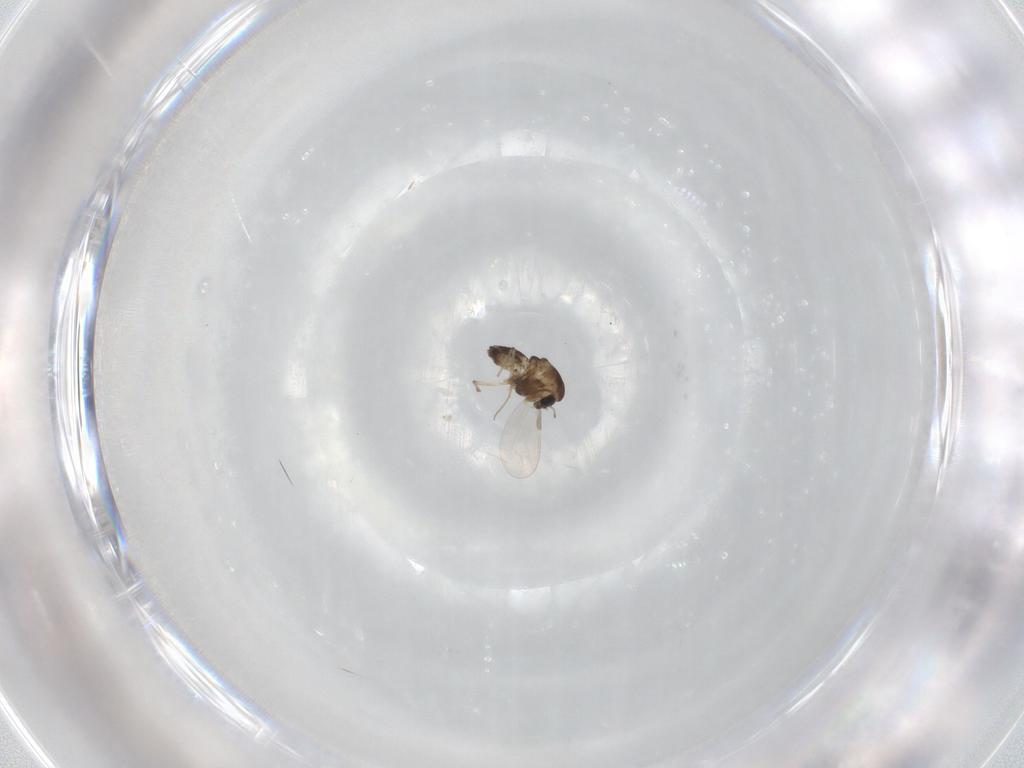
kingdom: Animalia
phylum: Arthropoda
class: Insecta
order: Diptera
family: Chironomidae
